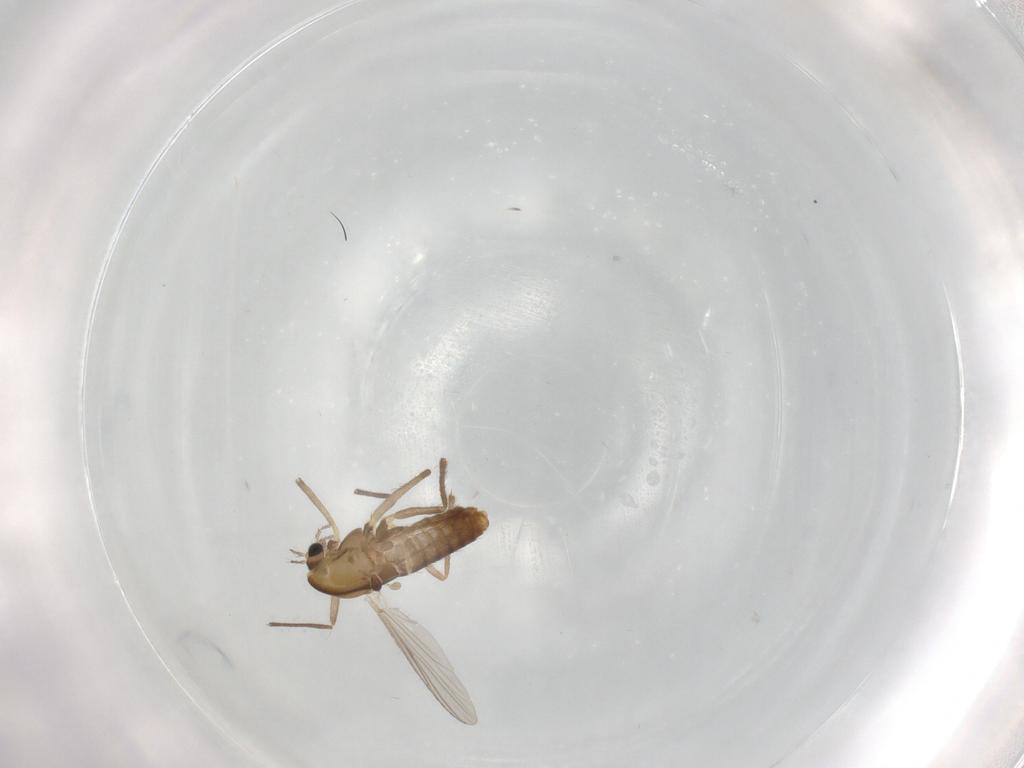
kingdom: Animalia
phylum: Arthropoda
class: Insecta
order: Diptera
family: Chironomidae
